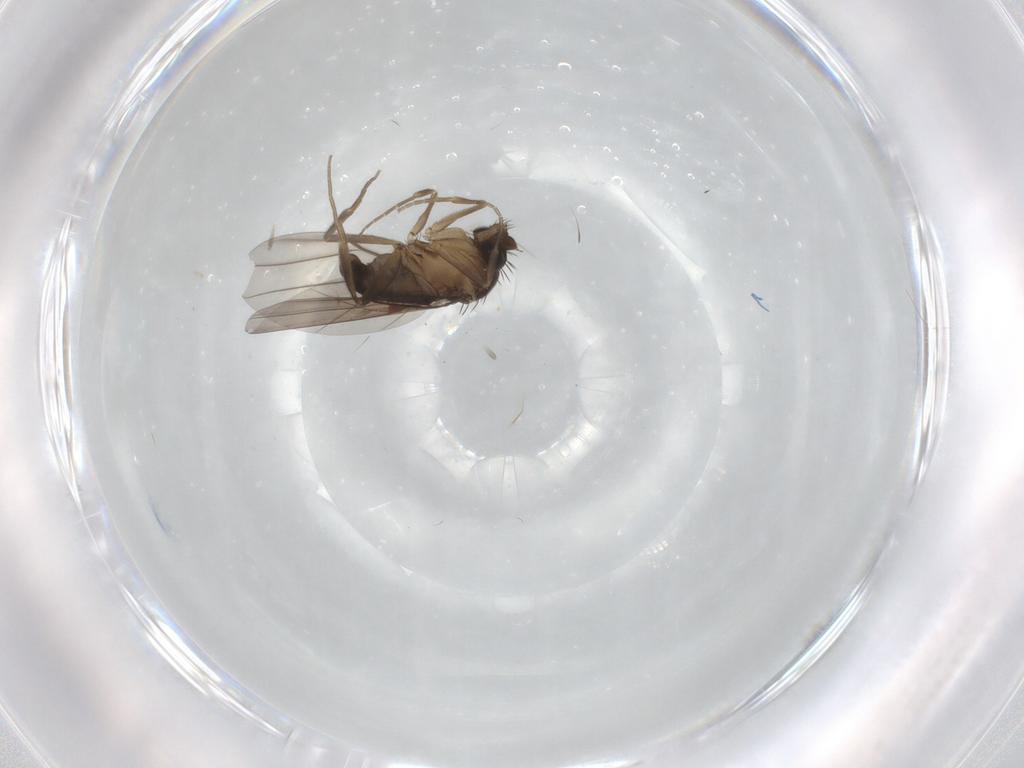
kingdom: Animalia
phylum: Arthropoda
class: Insecta
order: Diptera
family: Phoridae
